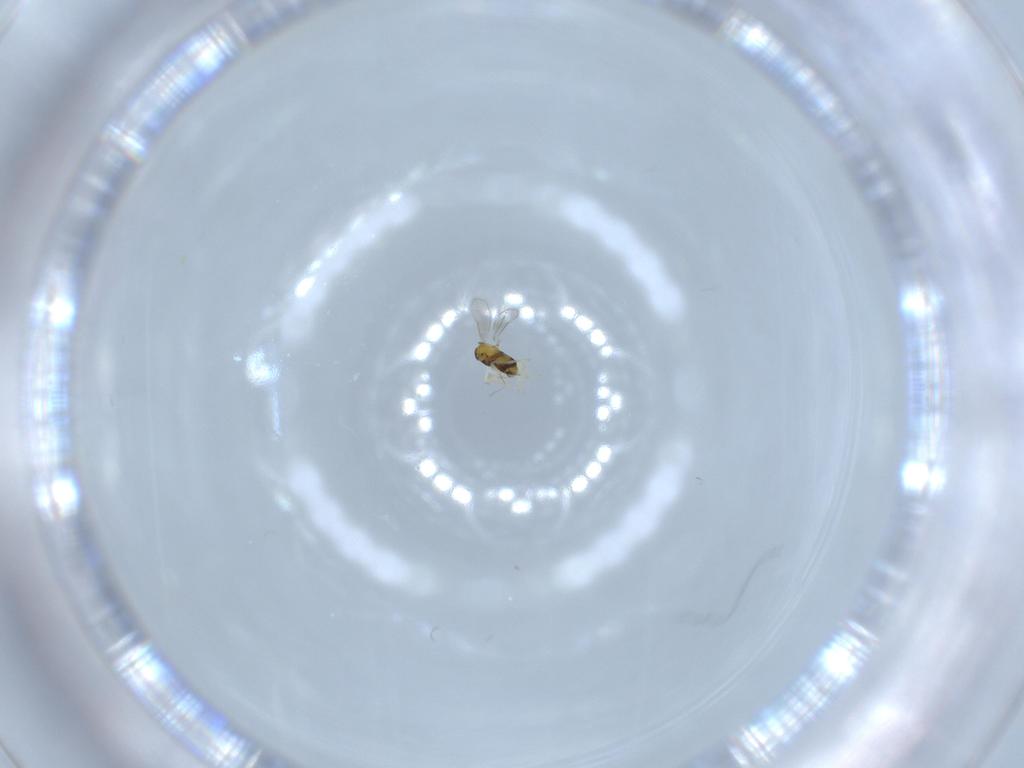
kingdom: Animalia
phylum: Arthropoda
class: Insecta
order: Hymenoptera
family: Aphelinidae
